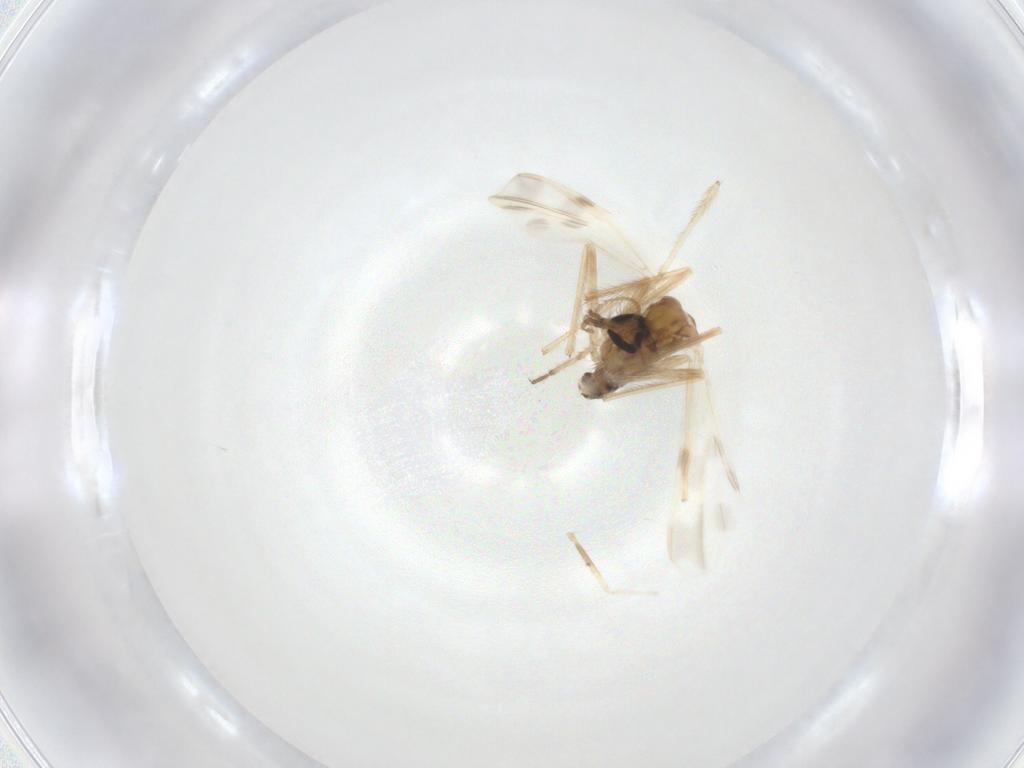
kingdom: Animalia
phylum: Arthropoda
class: Insecta
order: Diptera
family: Chironomidae
